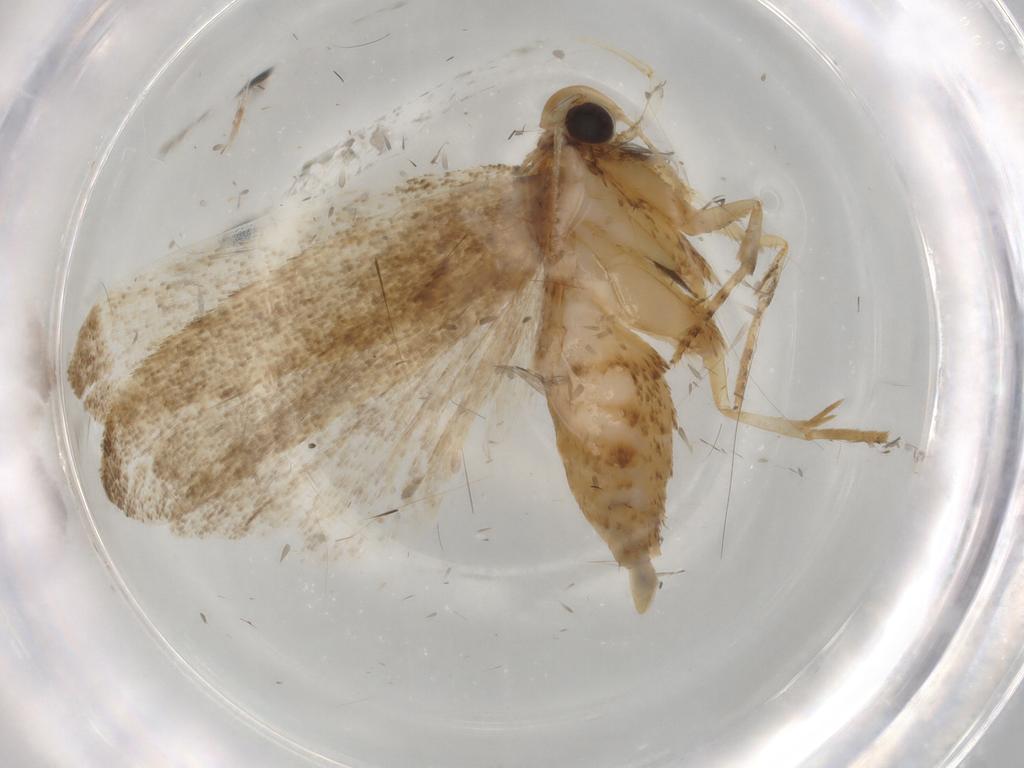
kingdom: Animalia
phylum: Arthropoda
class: Insecta
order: Lepidoptera
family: Autostichidae
